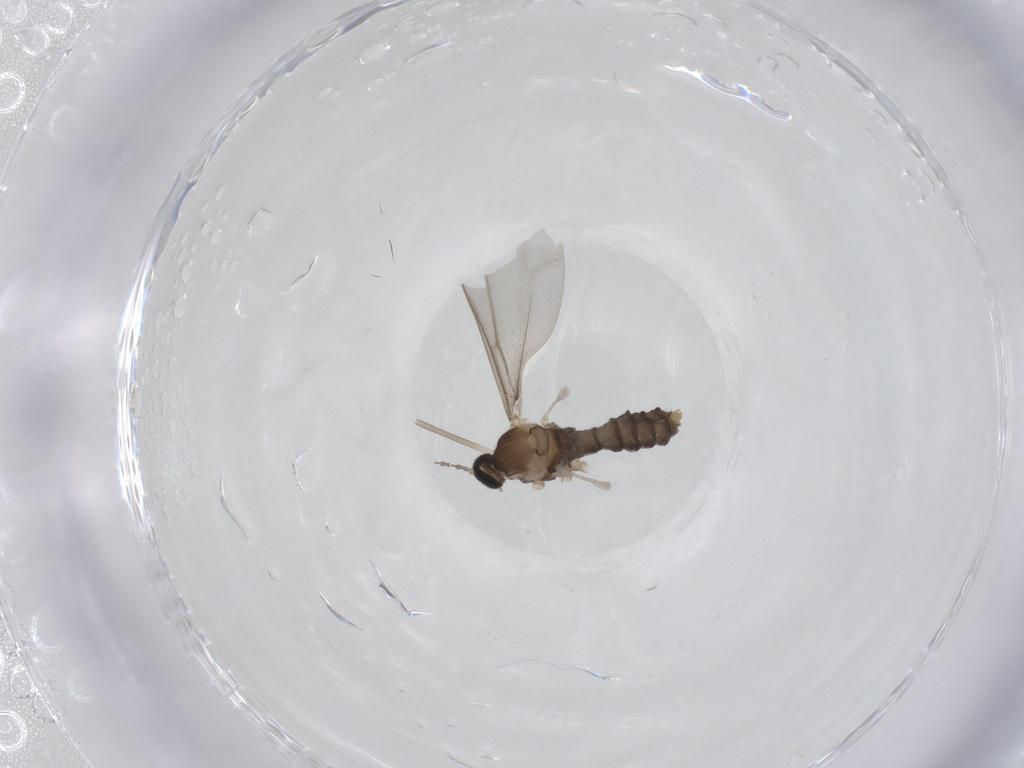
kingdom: Animalia
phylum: Arthropoda
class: Insecta
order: Diptera
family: Cecidomyiidae
